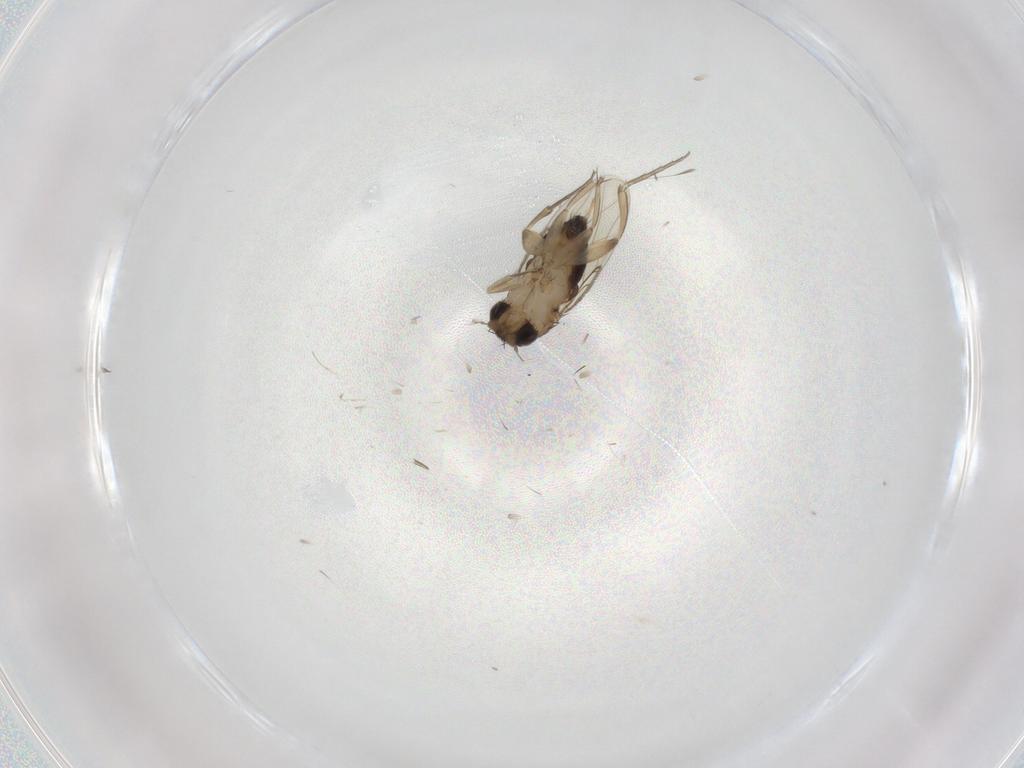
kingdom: Animalia
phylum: Arthropoda
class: Insecta
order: Diptera
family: Phoridae
